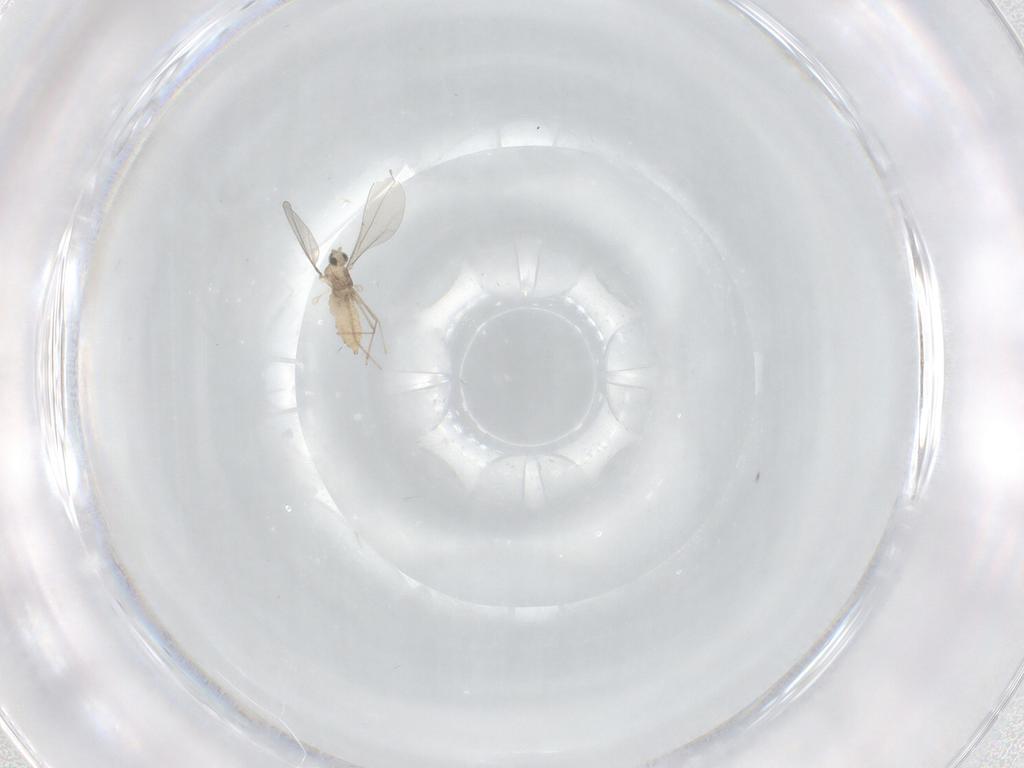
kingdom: Animalia
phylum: Arthropoda
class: Insecta
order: Diptera
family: Cecidomyiidae
